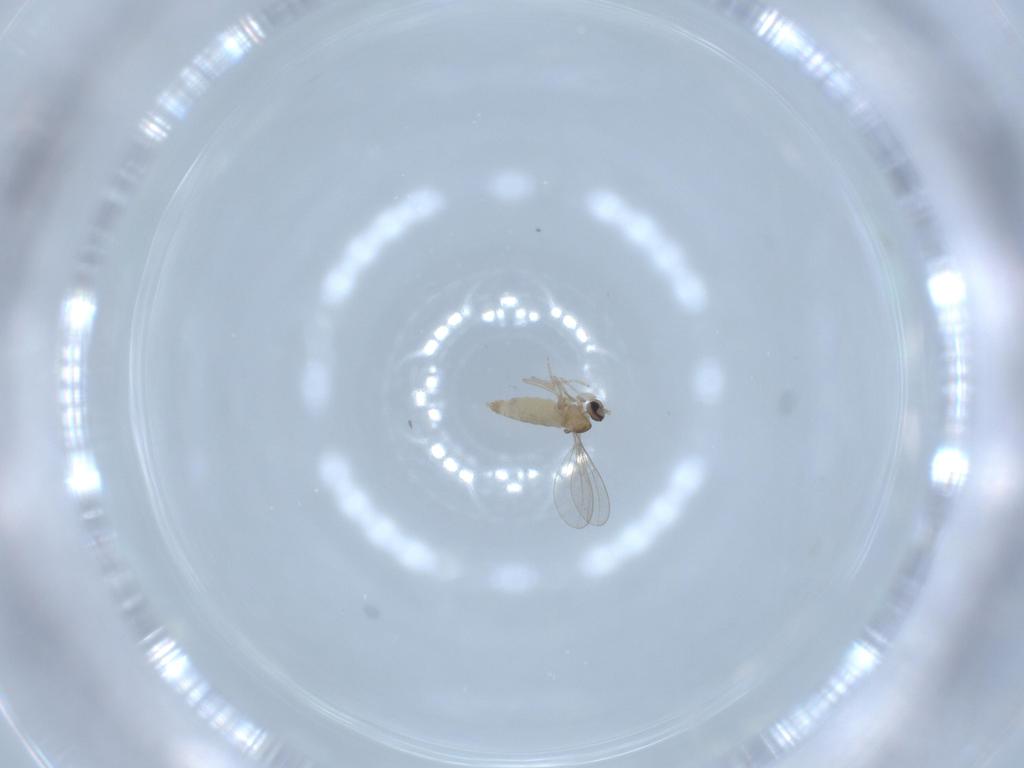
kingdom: Animalia
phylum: Arthropoda
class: Insecta
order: Diptera
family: Cecidomyiidae
